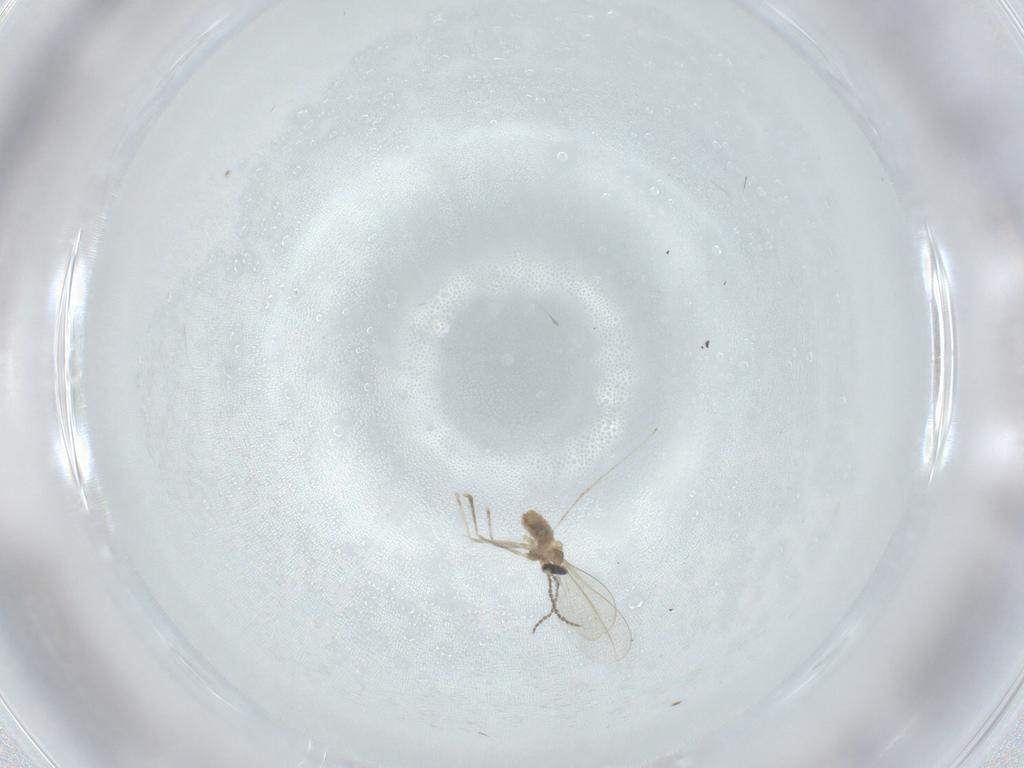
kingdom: Animalia
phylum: Arthropoda
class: Insecta
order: Diptera
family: Cecidomyiidae
